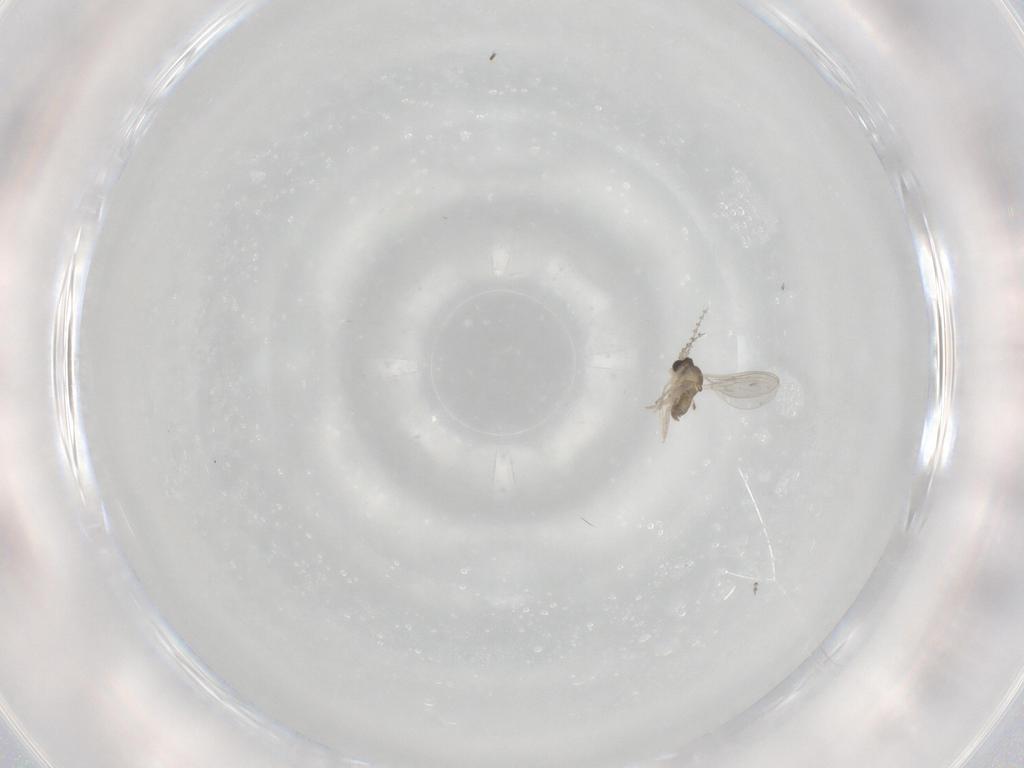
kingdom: Animalia
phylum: Arthropoda
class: Insecta
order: Diptera
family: Cecidomyiidae
